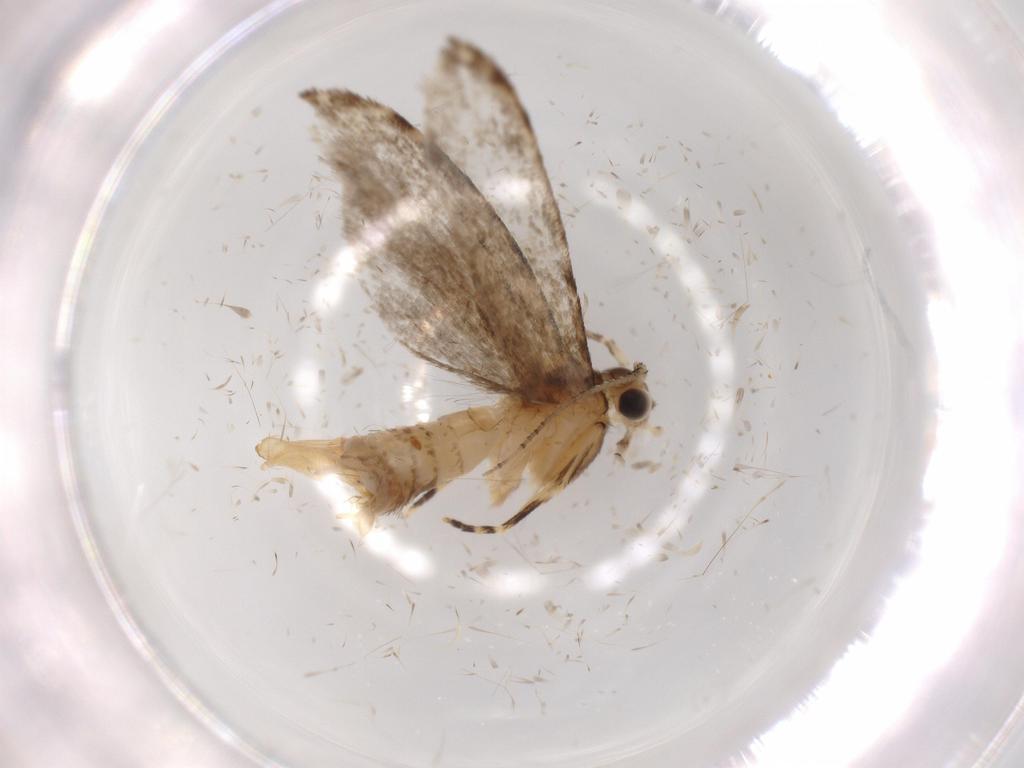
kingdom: Animalia
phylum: Arthropoda
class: Insecta
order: Lepidoptera
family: Tineidae
